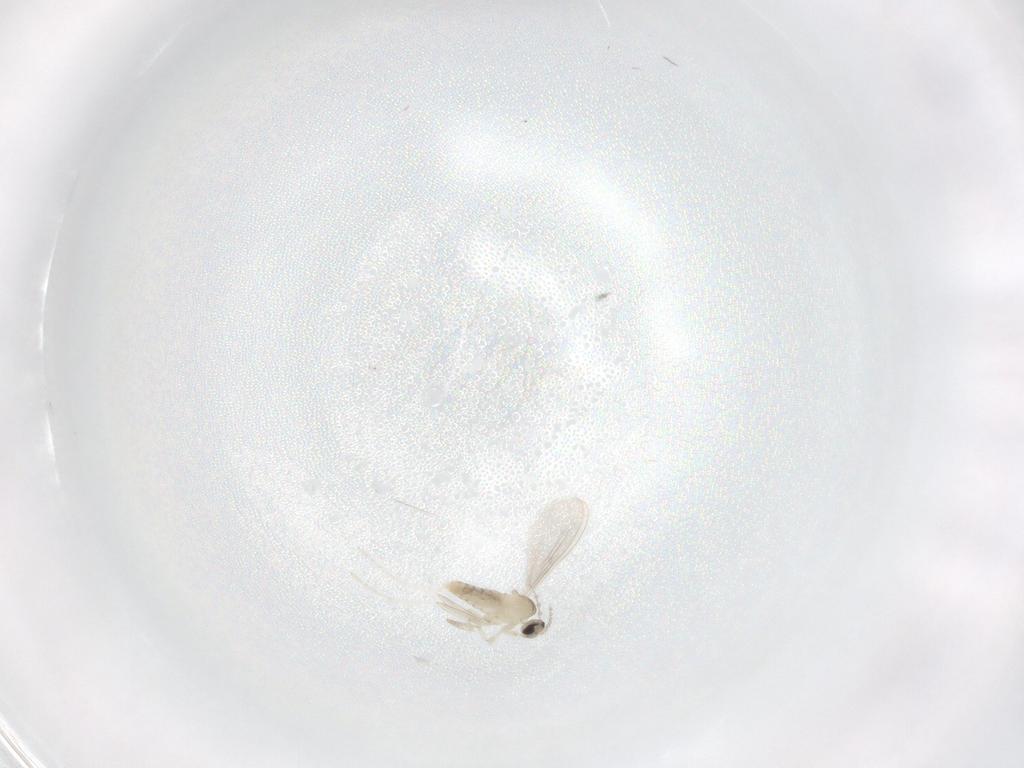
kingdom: Animalia
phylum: Arthropoda
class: Insecta
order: Diptera
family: Cecidomyiidae
